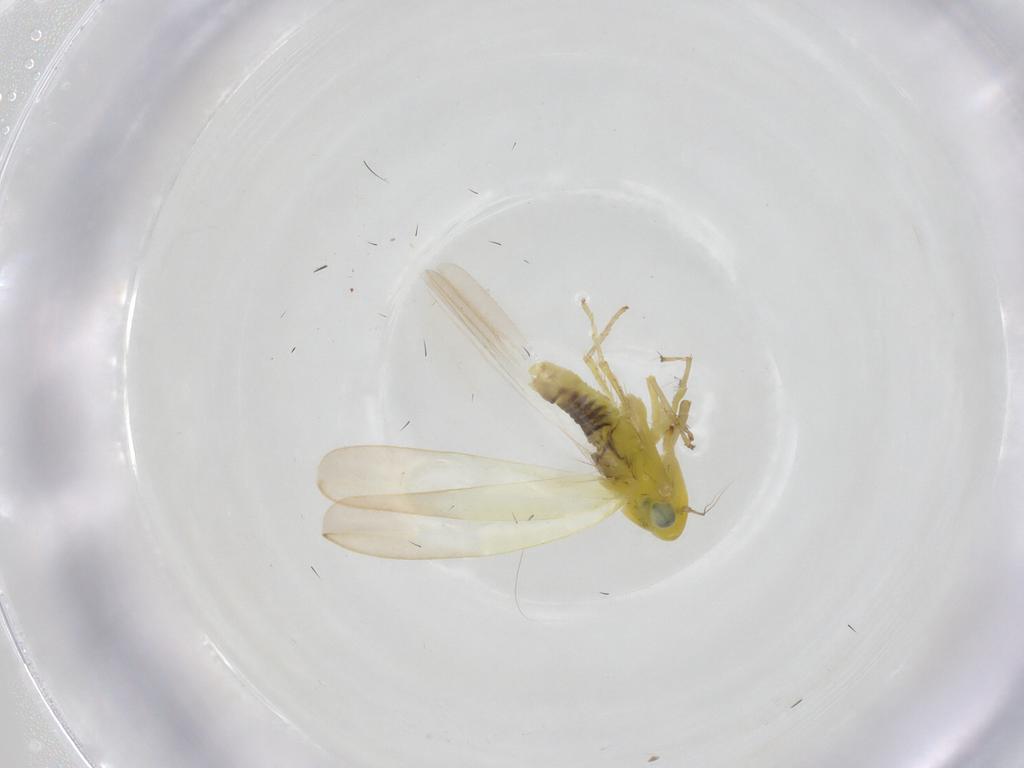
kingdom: Animalia
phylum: Arthropoda
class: Insecta
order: Hemiptera
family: Cicadellidae
